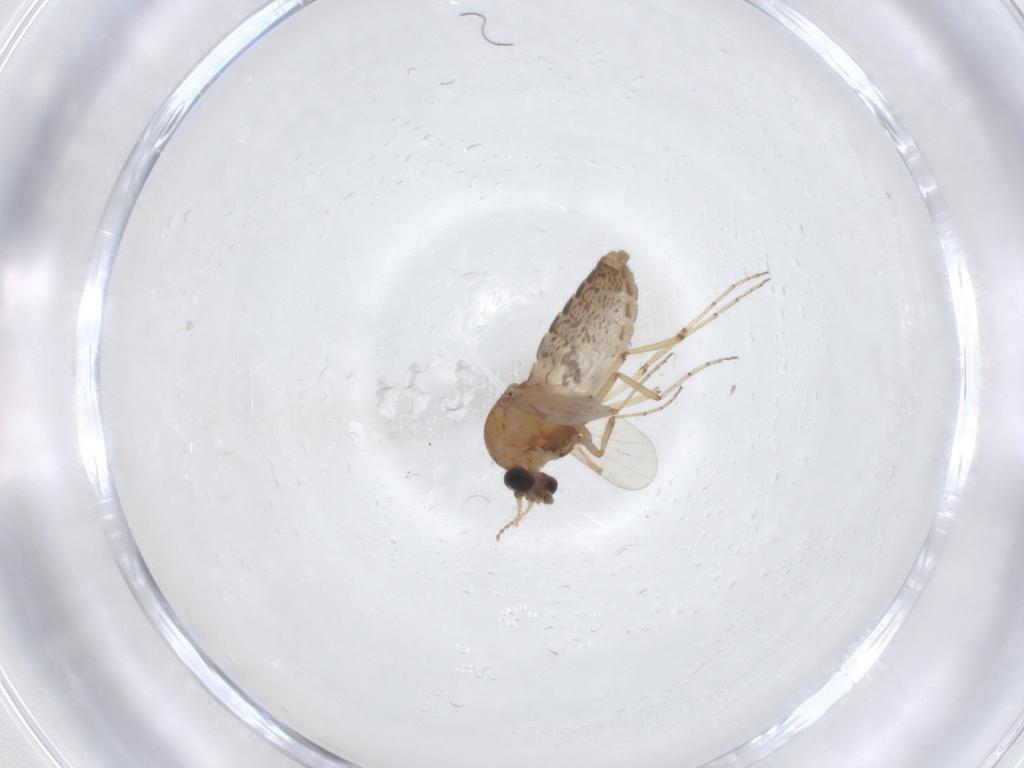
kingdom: Animalia
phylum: Arthropoda
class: Insecta
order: Diptera
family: Ceratopogonidae
